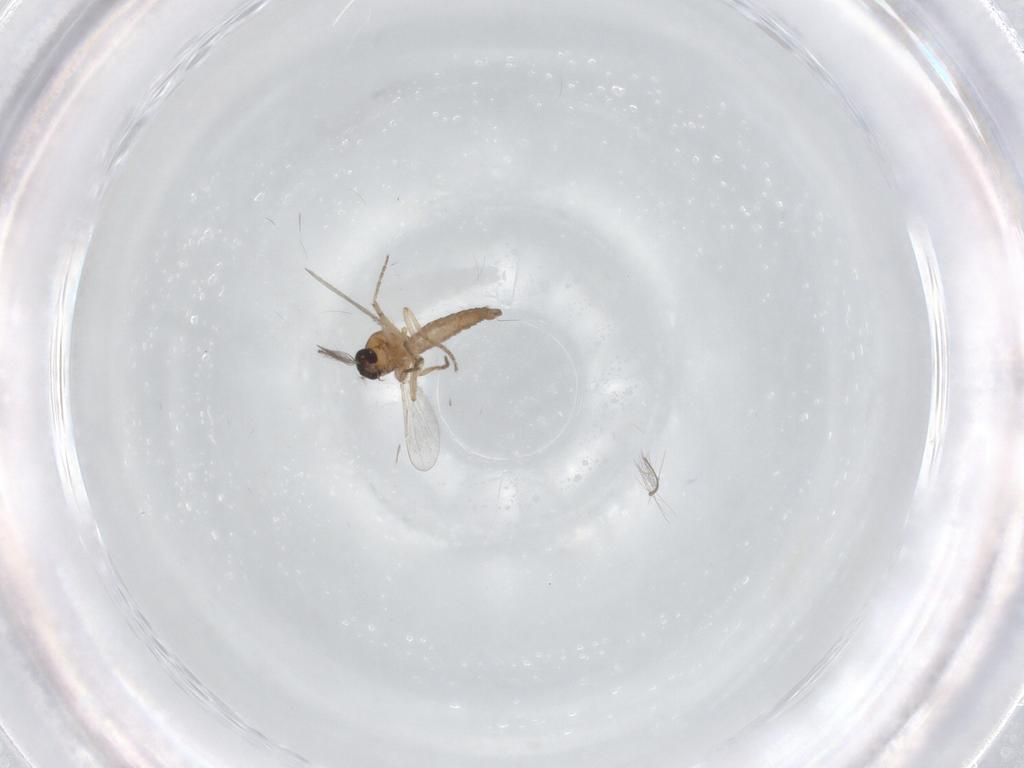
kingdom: Animalia
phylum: Arthropoda
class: Insecta
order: Diptera
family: Chironomidae
